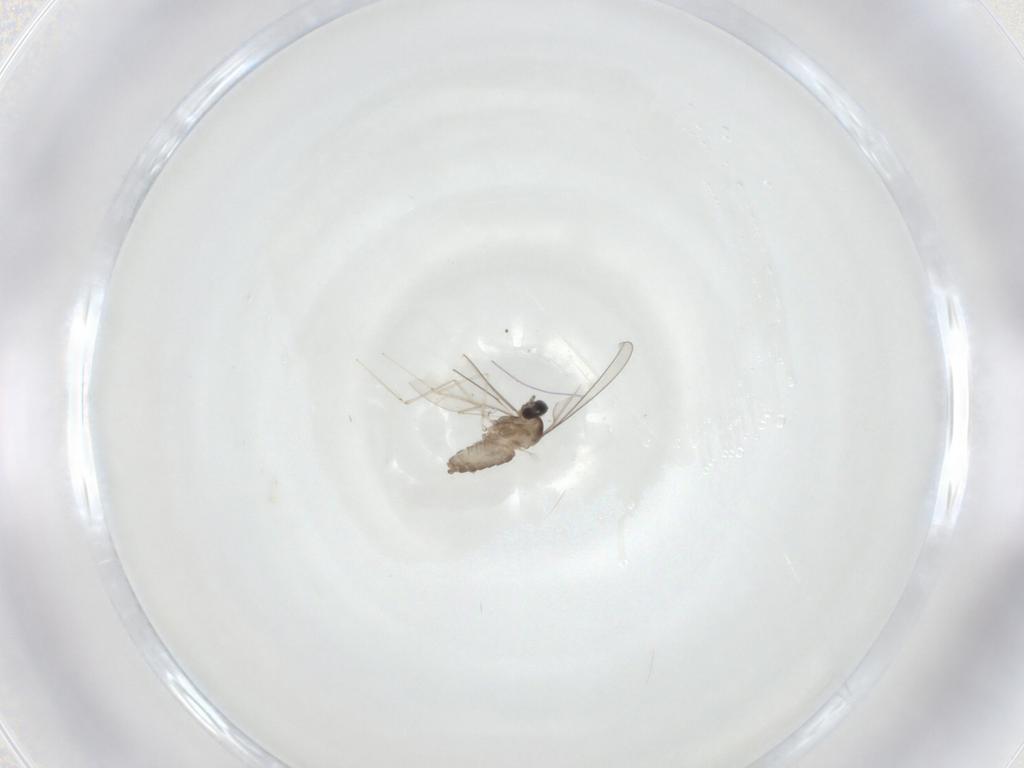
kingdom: Animalia
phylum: Arthropoda
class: Insecta
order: Diptera
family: Cecidomyiidae
